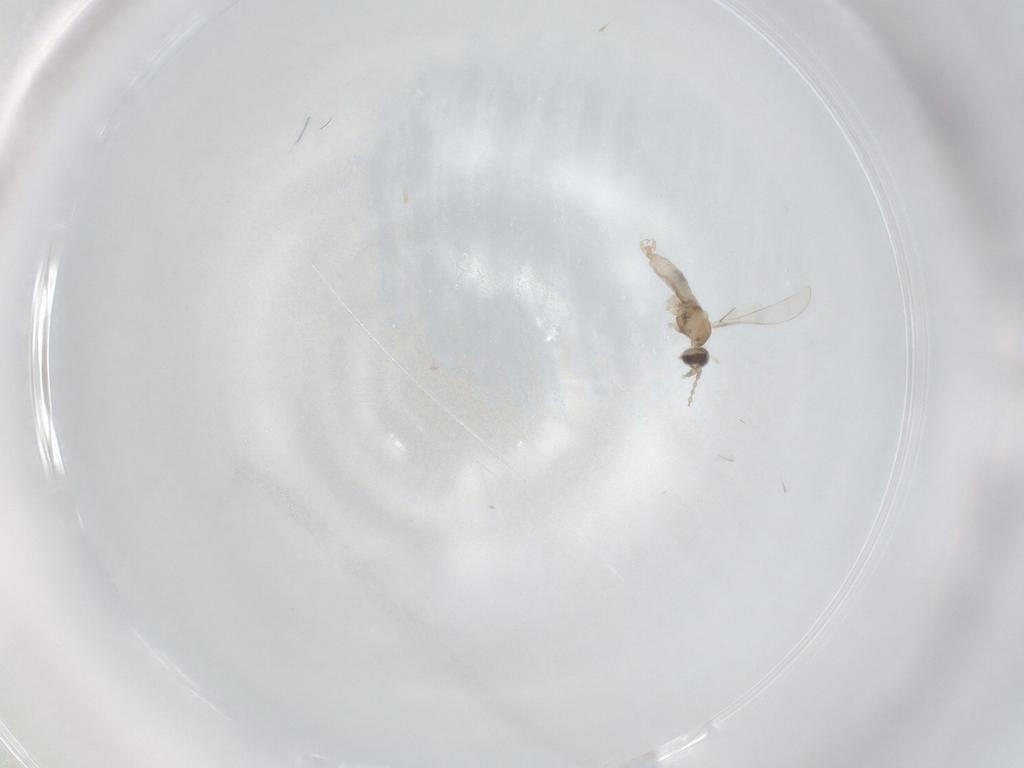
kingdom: Animalia
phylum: Arthropoda
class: Insecta
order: Diptera
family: Cecidomyiidae
